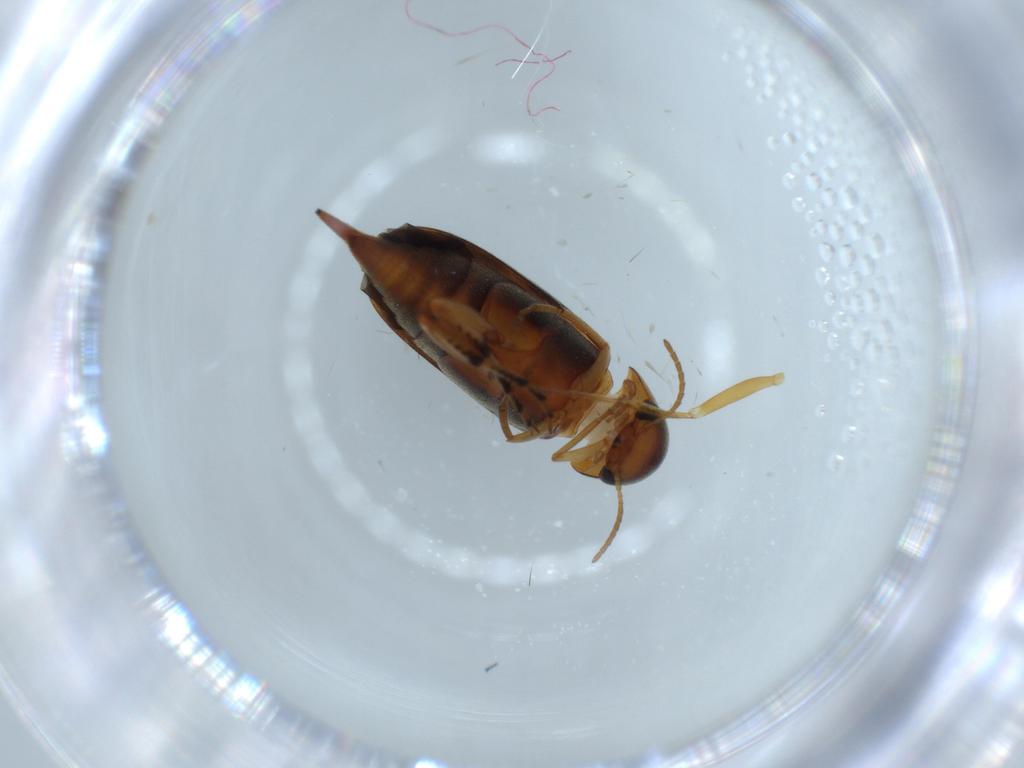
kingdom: Animalia
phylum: Arthropoda
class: Insecta
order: Coleoptera
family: Mordellidae
